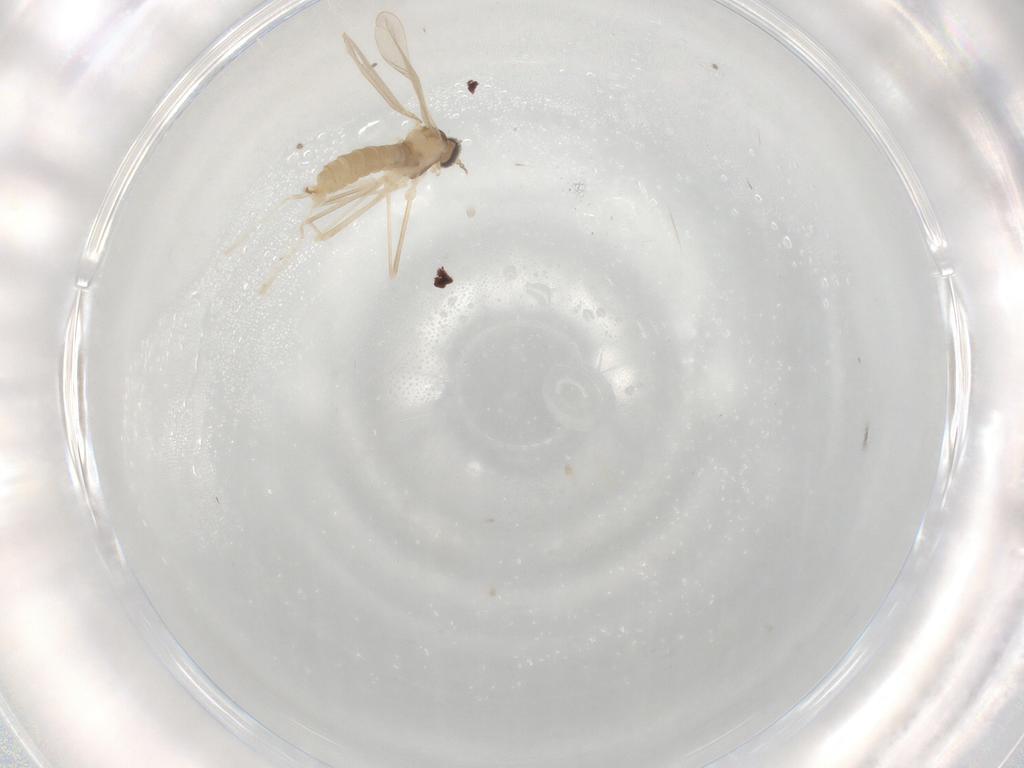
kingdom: Animalia
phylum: Arthropoda
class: Insecta
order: Diptera
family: Cecidomyiidae
